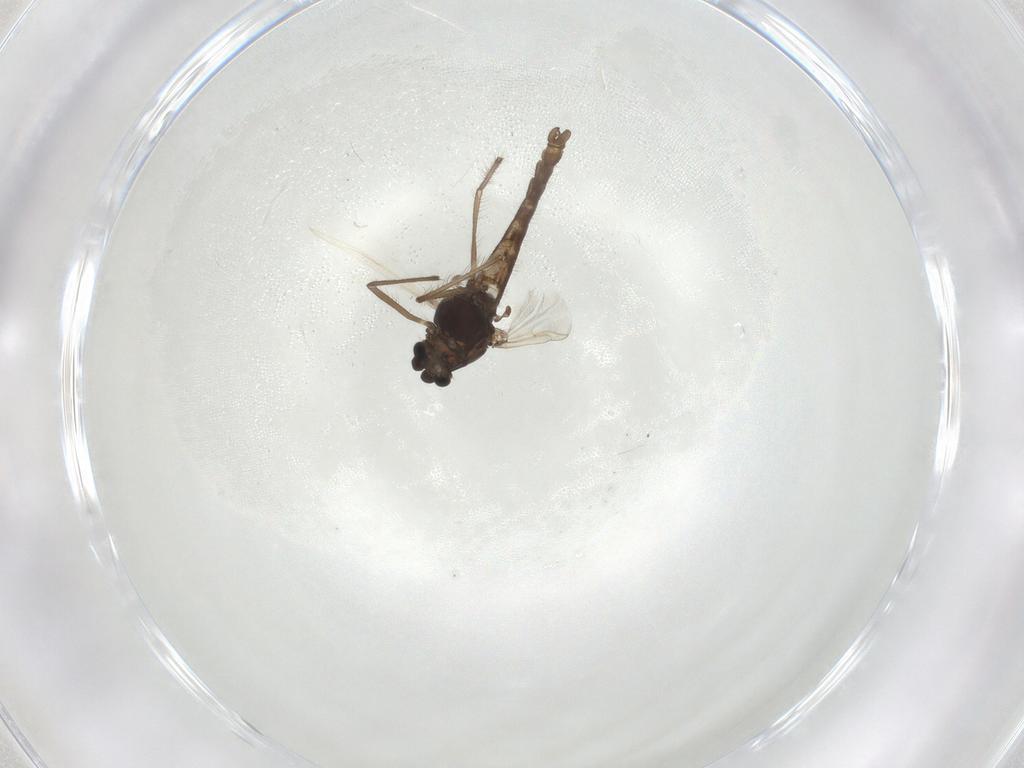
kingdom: Animalia
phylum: Arthropoda
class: Insecta
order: Diptera
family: Chironomidae
